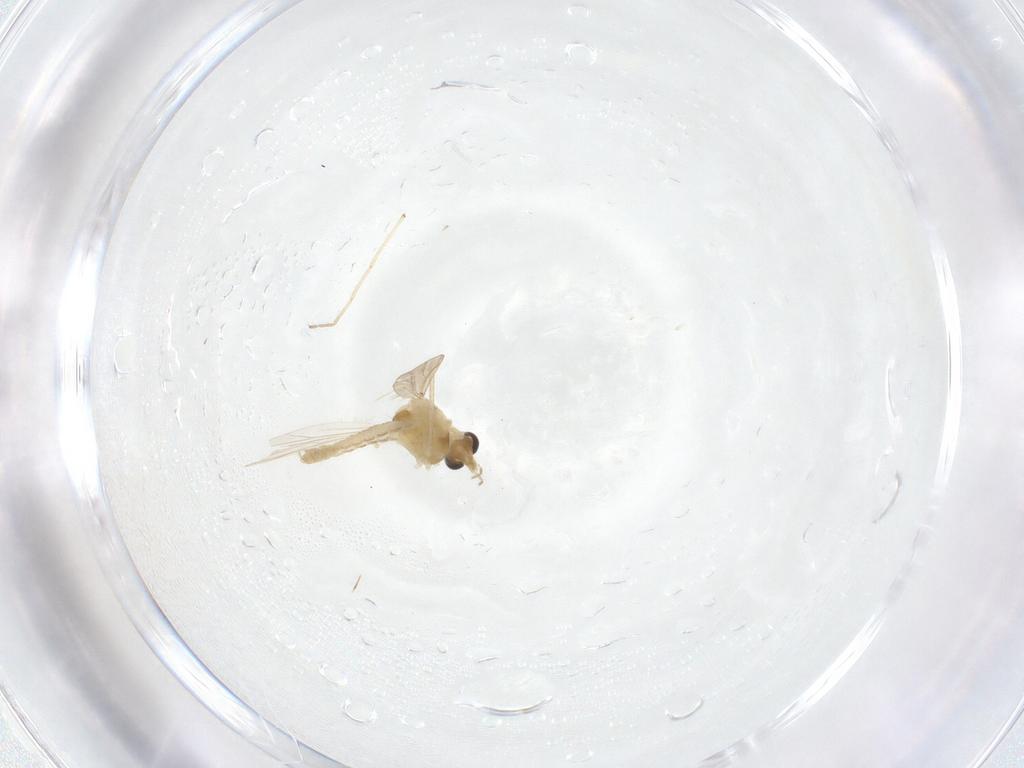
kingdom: Animalia
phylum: Arthropoda
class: Insecta
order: Diptera
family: Chironomidae
